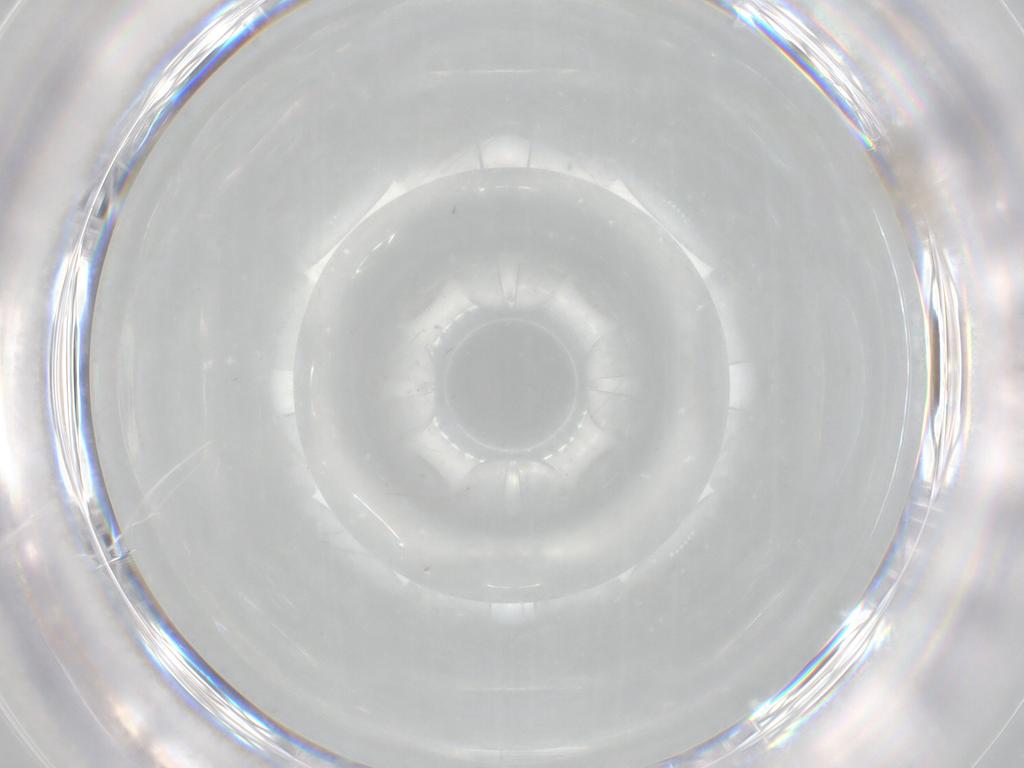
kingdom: Animalia
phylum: Arthropoda
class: Insecta
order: Diptera
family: Cecidomyiidae
